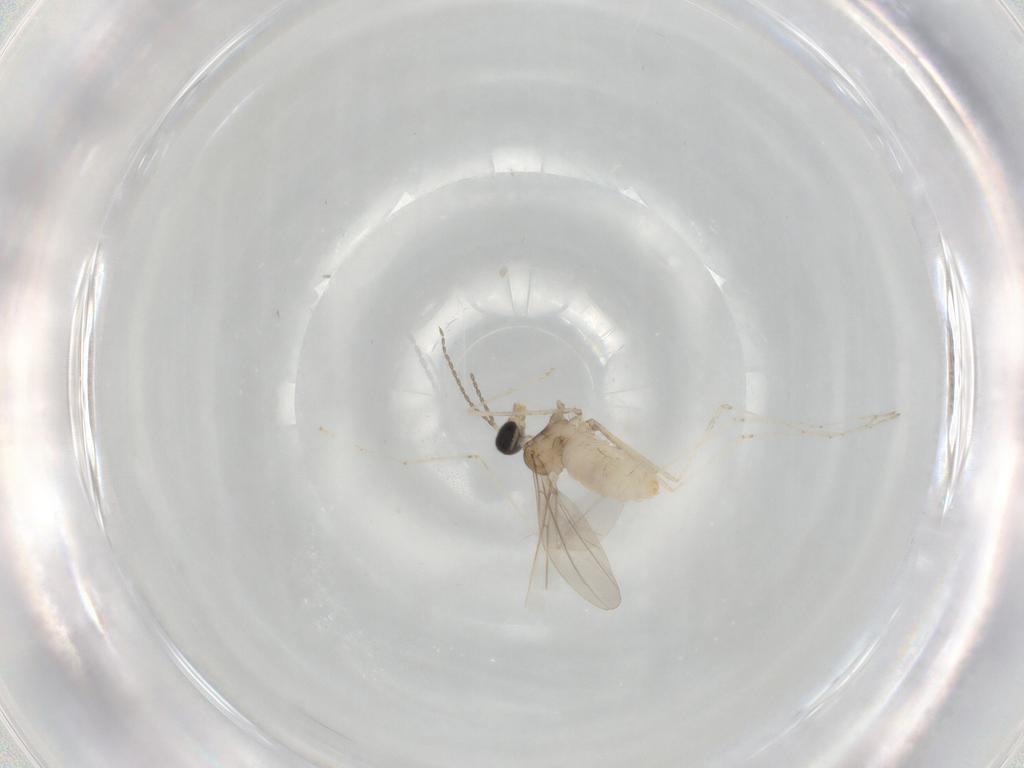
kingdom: Animalia
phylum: Arthropoda
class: Insecta
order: Diptera
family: Cecidomyiidae
